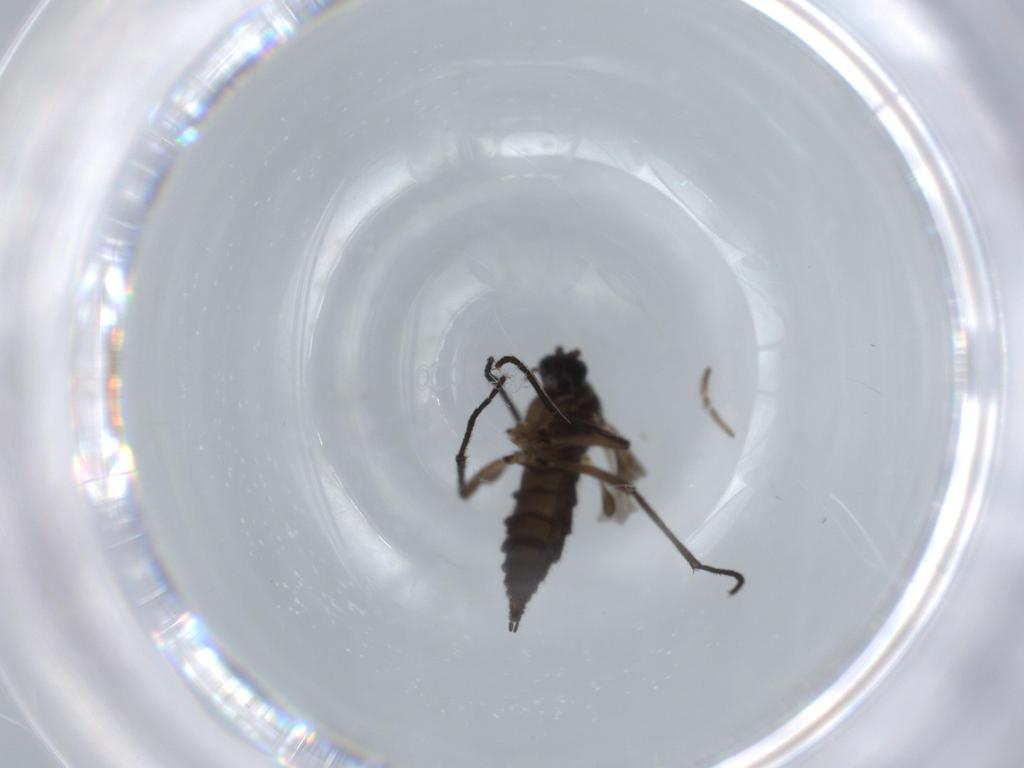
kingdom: Animalia
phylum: Arthropoda
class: Insecta
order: Diptera
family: Sciaridae
